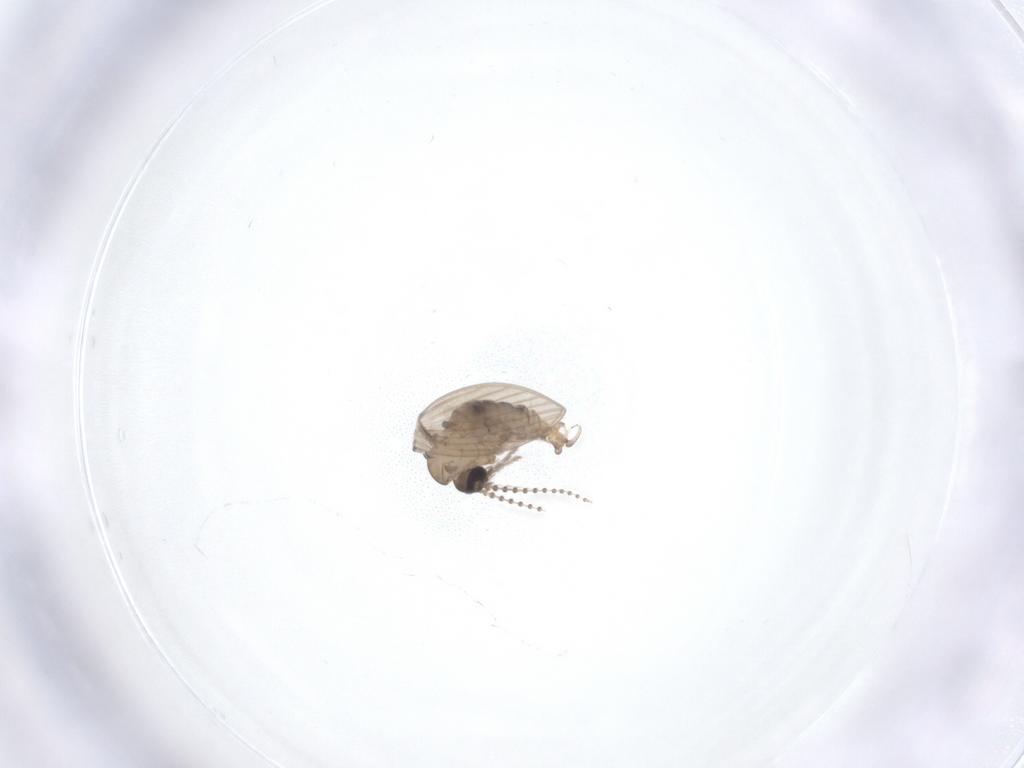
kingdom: Animalia
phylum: Arthropoda
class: Insecta
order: Diptera
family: Psychodidae
